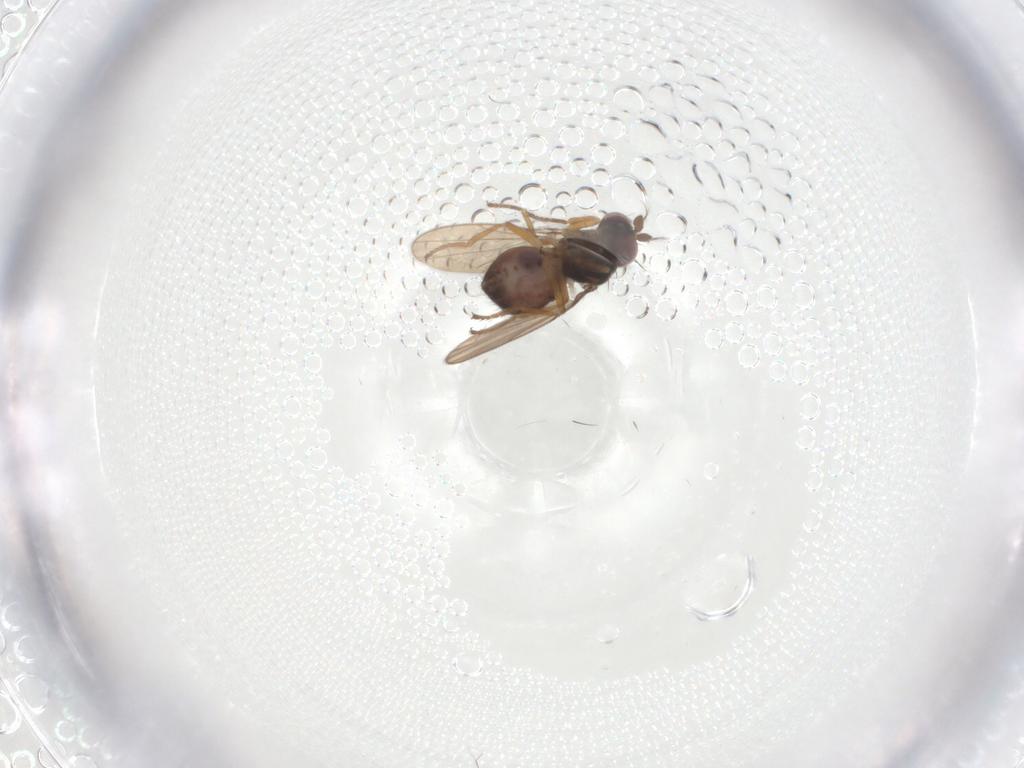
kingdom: Animalia
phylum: Arthropoda
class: Insecta
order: Diptera
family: Ephydridae
